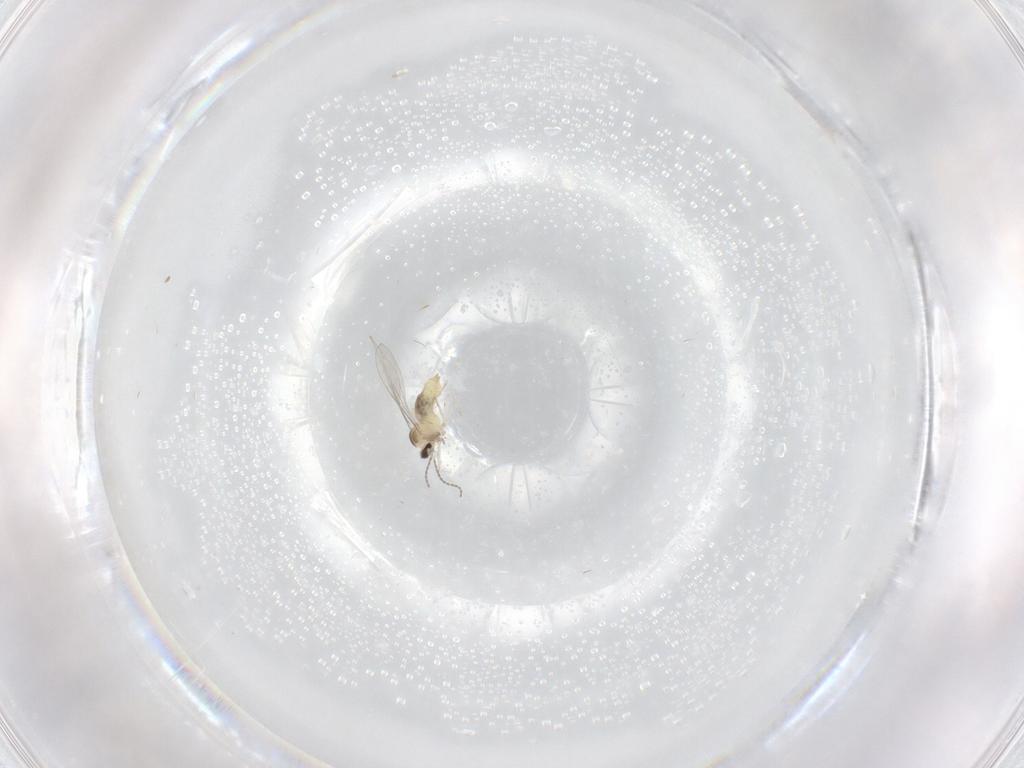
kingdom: Animalia
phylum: Arthropoda
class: Insecta
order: Diptera
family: Cecidomyiidae
